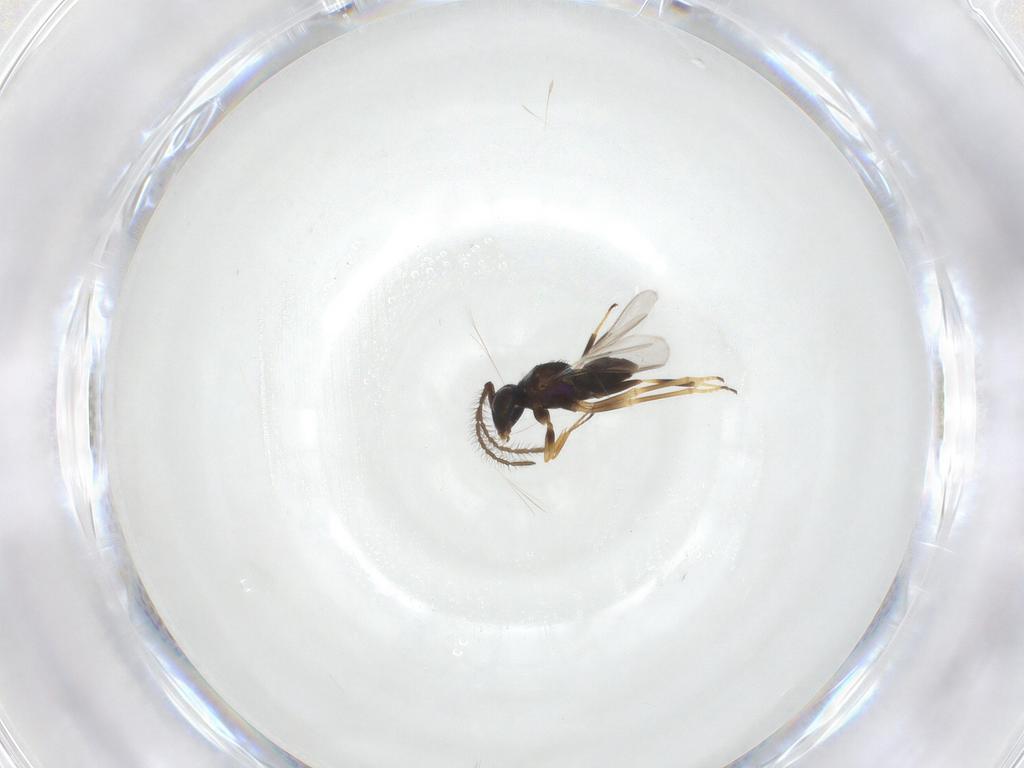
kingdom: Animalia
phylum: Arthropoda
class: Insecta
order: Hymenoptera
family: Encyrtidae
